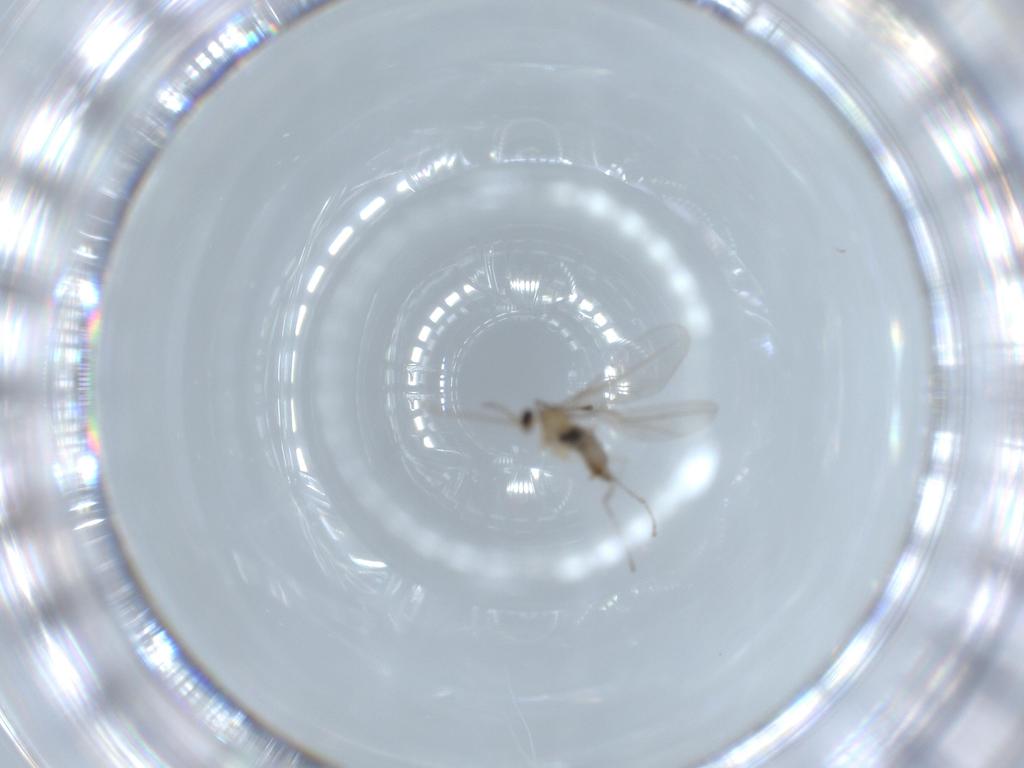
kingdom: Animalia
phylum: Arthropoda
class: Insecta
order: Diptera
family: Cecidomyiidae
